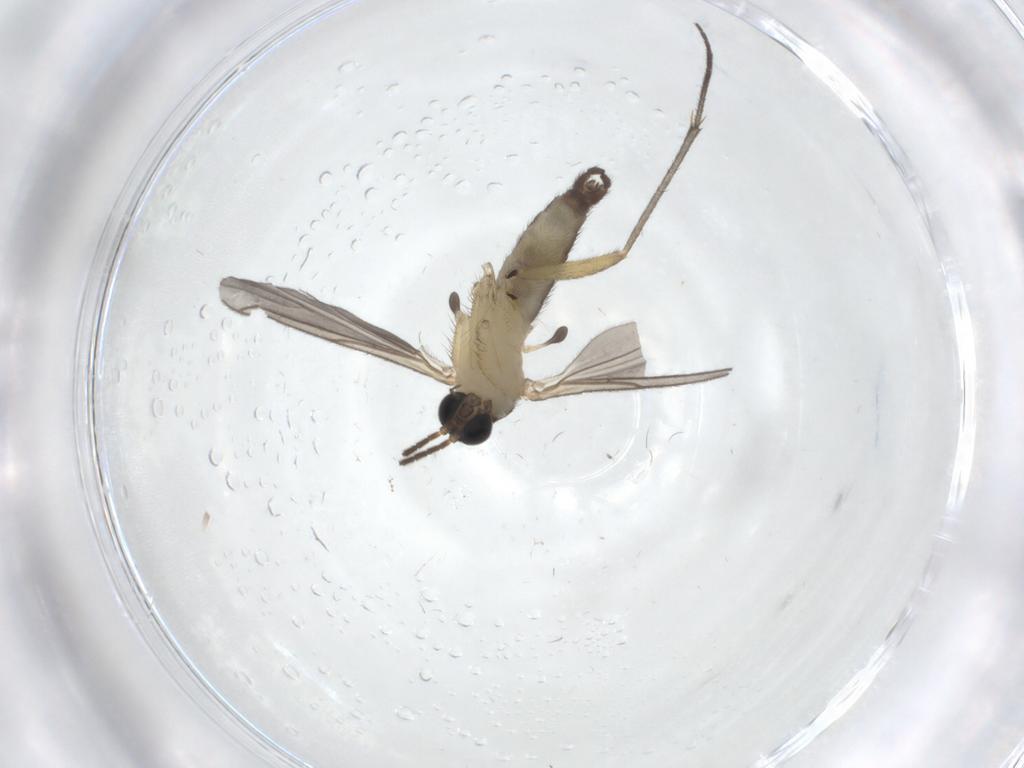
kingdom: Animalia
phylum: Arthropoda
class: Insecta
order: Diptera
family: Sciaridae
